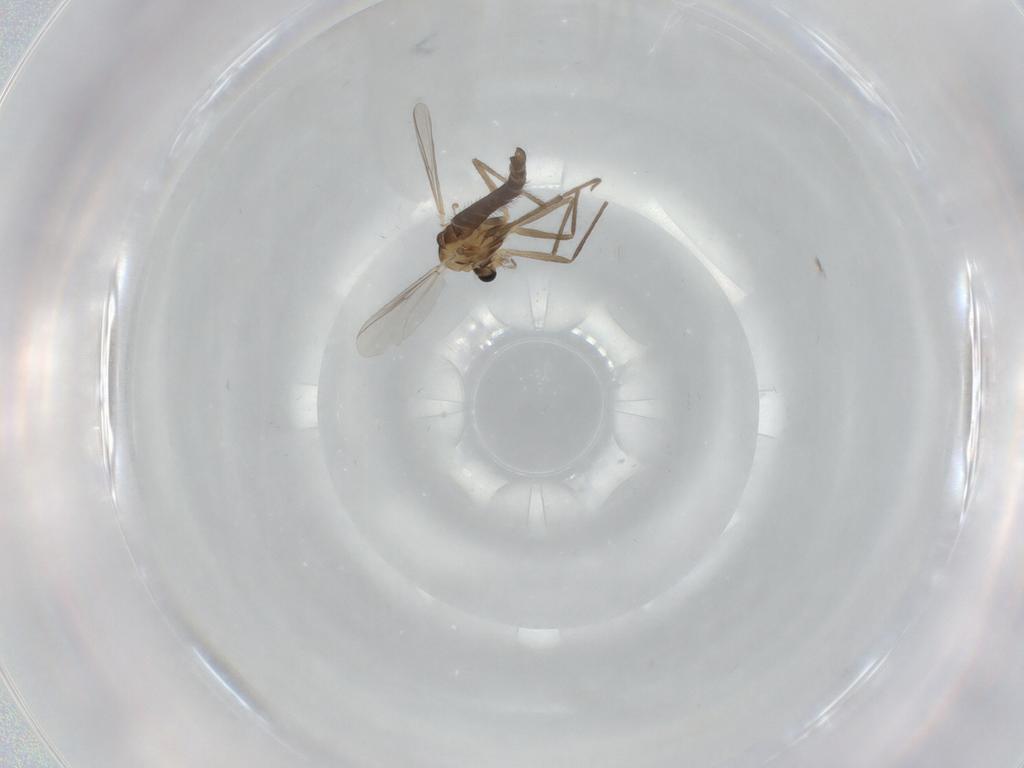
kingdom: Animalia
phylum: Arthropoda
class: Insecta
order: Diptera
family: Chironomidae
